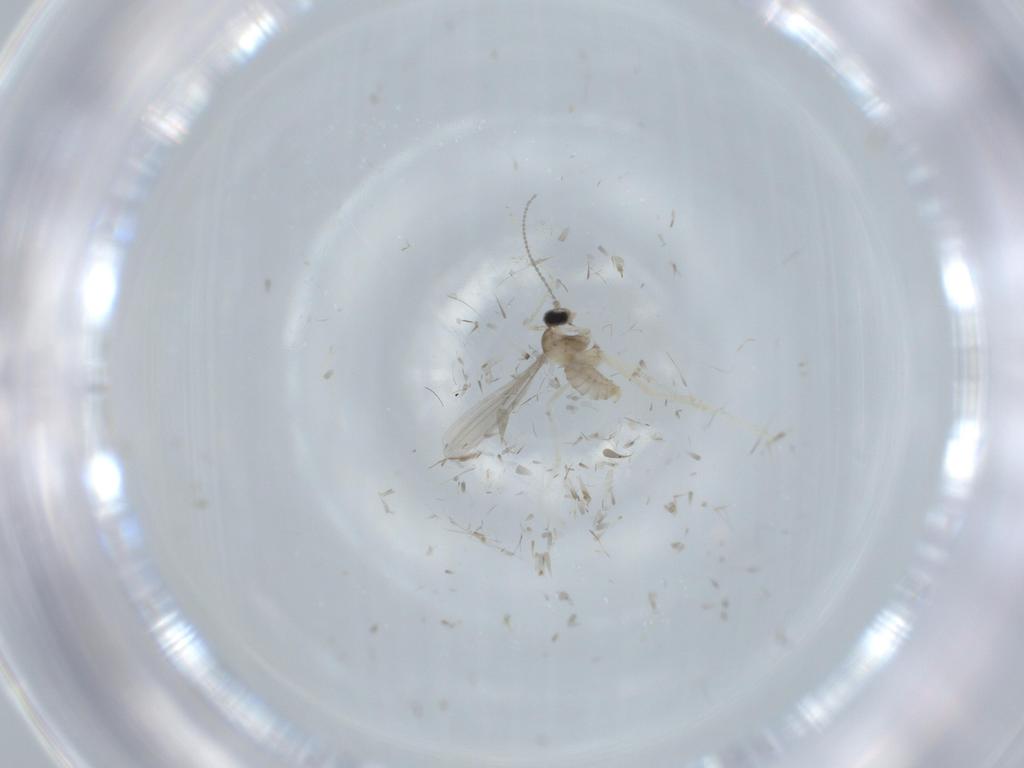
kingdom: Animalia
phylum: Arthropoda
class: Insecta
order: Diptera
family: Cecidomyiidae
